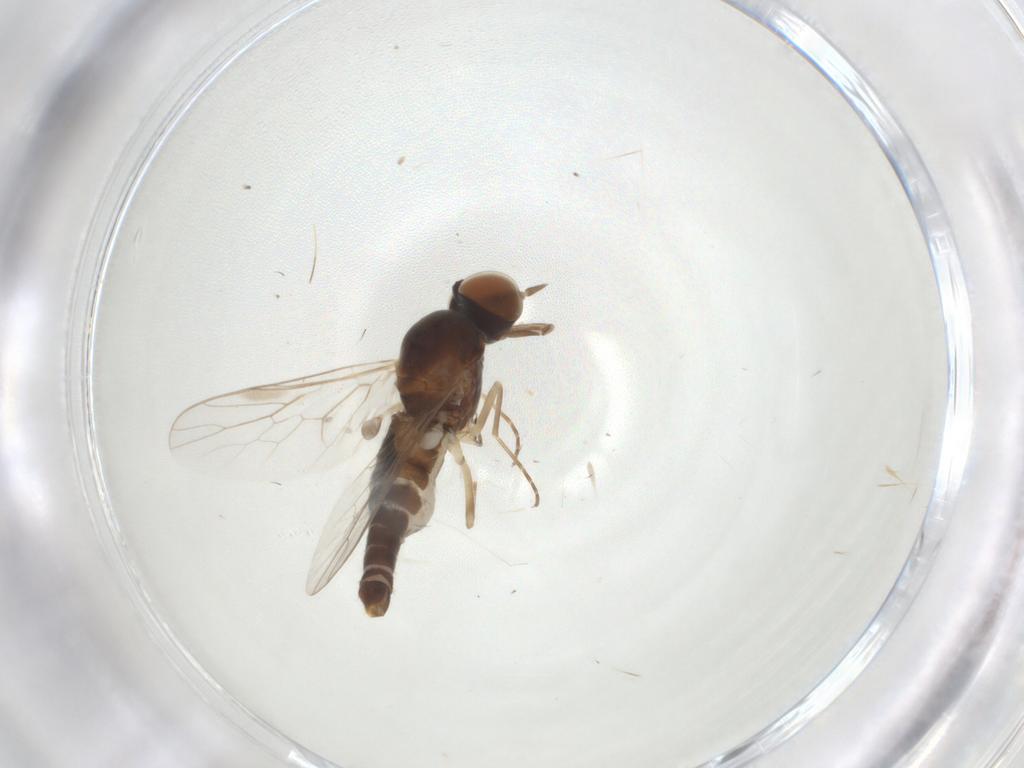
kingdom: Animalia
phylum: Arthropoda
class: Insecta
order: Diptera
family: Scenopinidae
